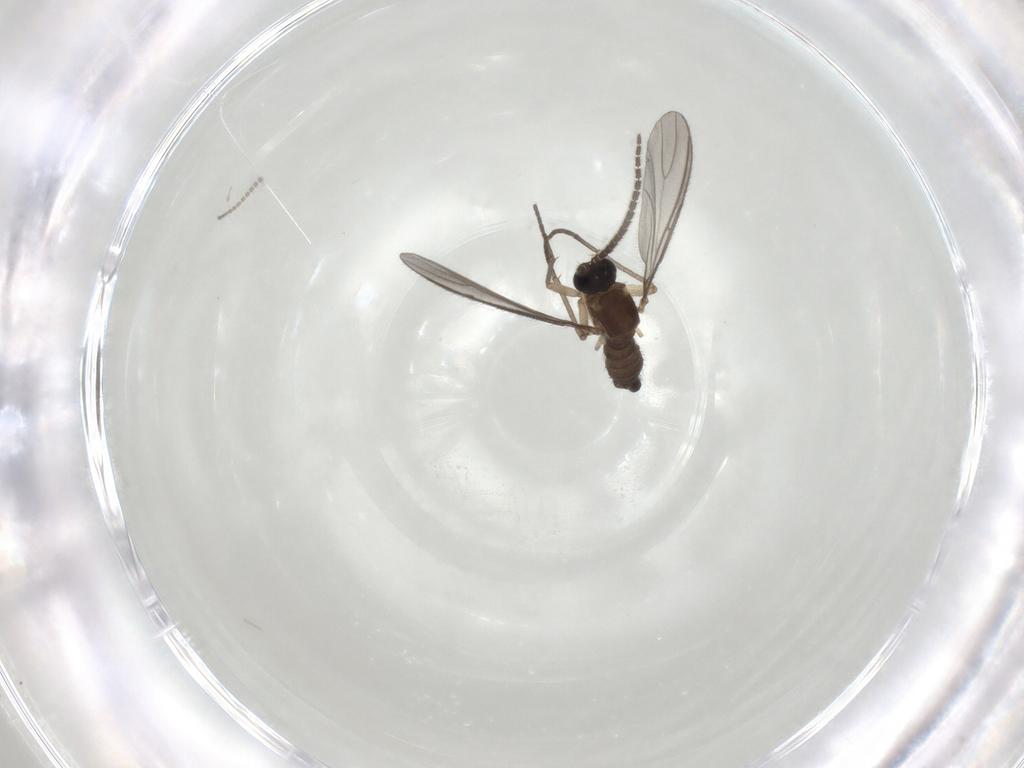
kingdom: Animalia
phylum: Arthropoda
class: Insecta
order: Diptera
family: Sciaridae
